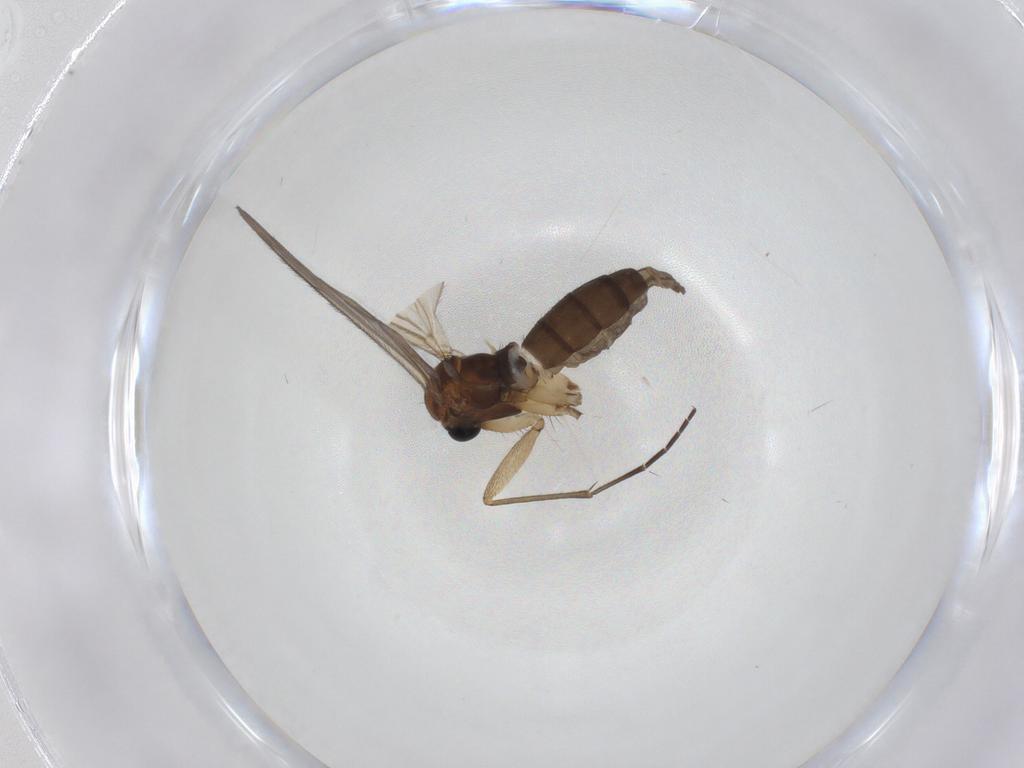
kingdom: Animalia
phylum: Arthropoda
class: Insecta
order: Diptera
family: Sciaridae
